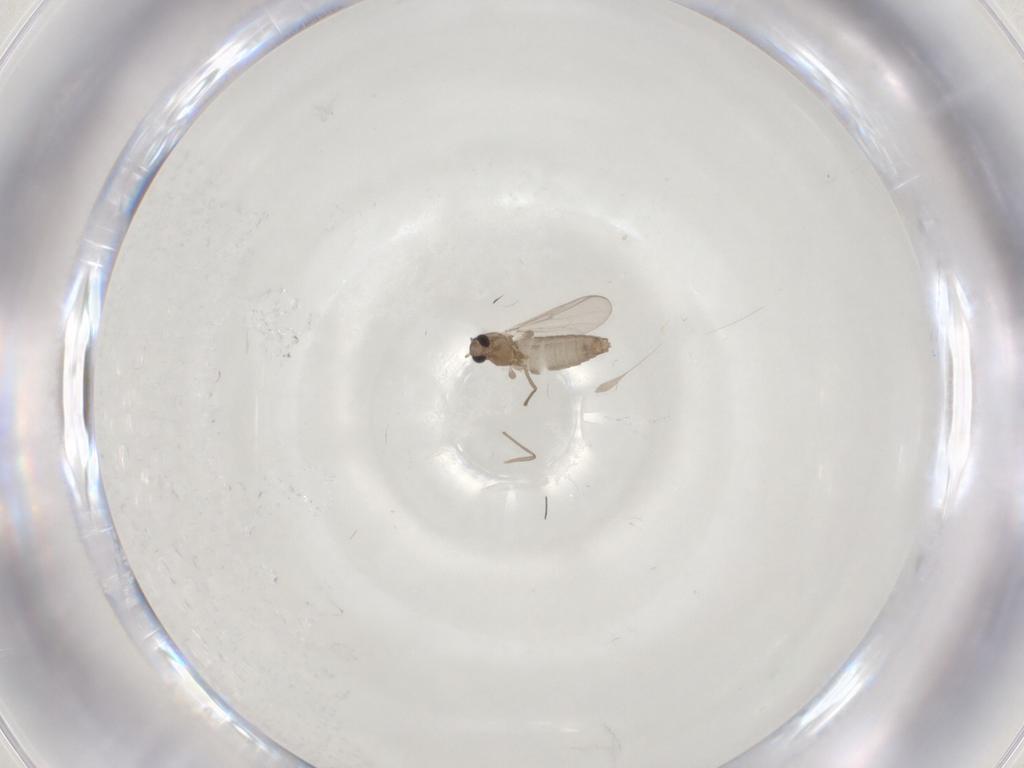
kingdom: Animalia
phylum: Arthropoda
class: Insecta
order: Diptera
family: Chironomidae
